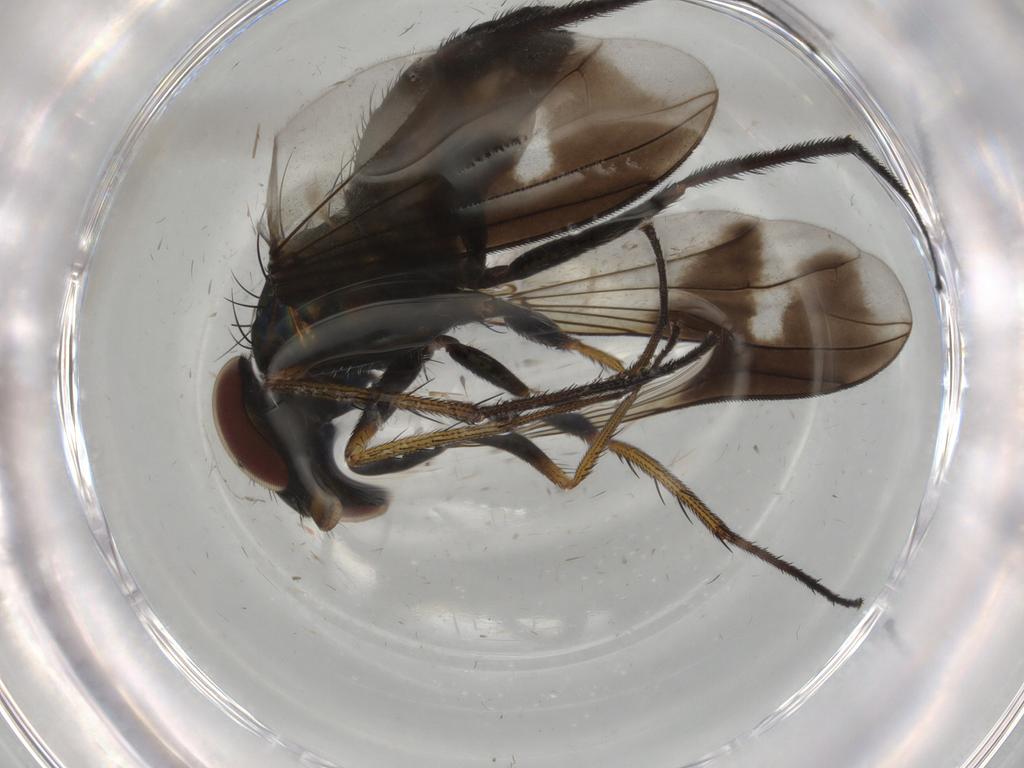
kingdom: Animalia
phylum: Arthropoda
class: Insecta
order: Diptera
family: Dolichopodidae
